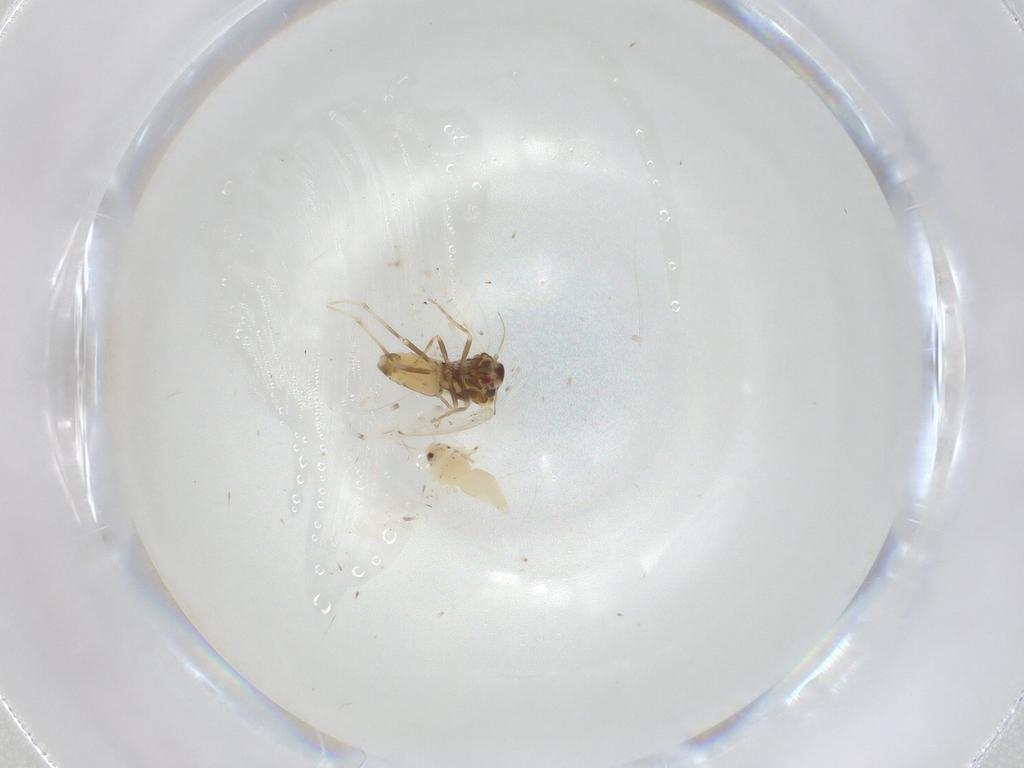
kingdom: Animalia
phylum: Arthropoda
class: Insecta
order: Hemiptera
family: Aleyrodidae
